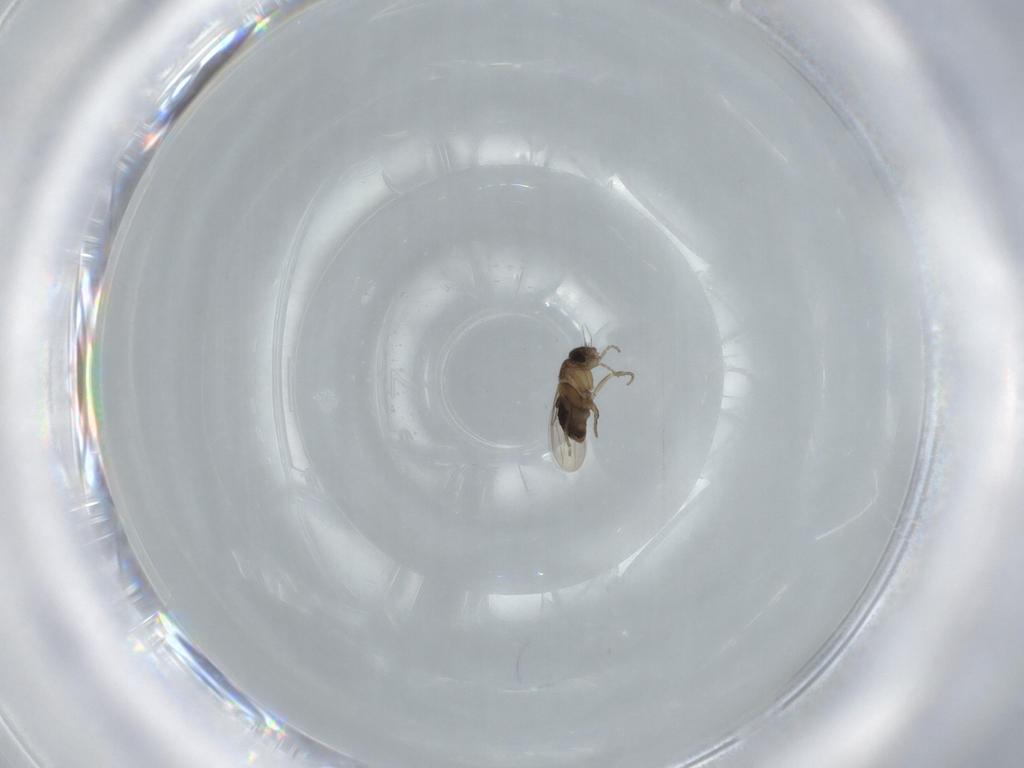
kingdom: Animalia
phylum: Arthropoda
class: Insecta
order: Diptera
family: Phoridae
